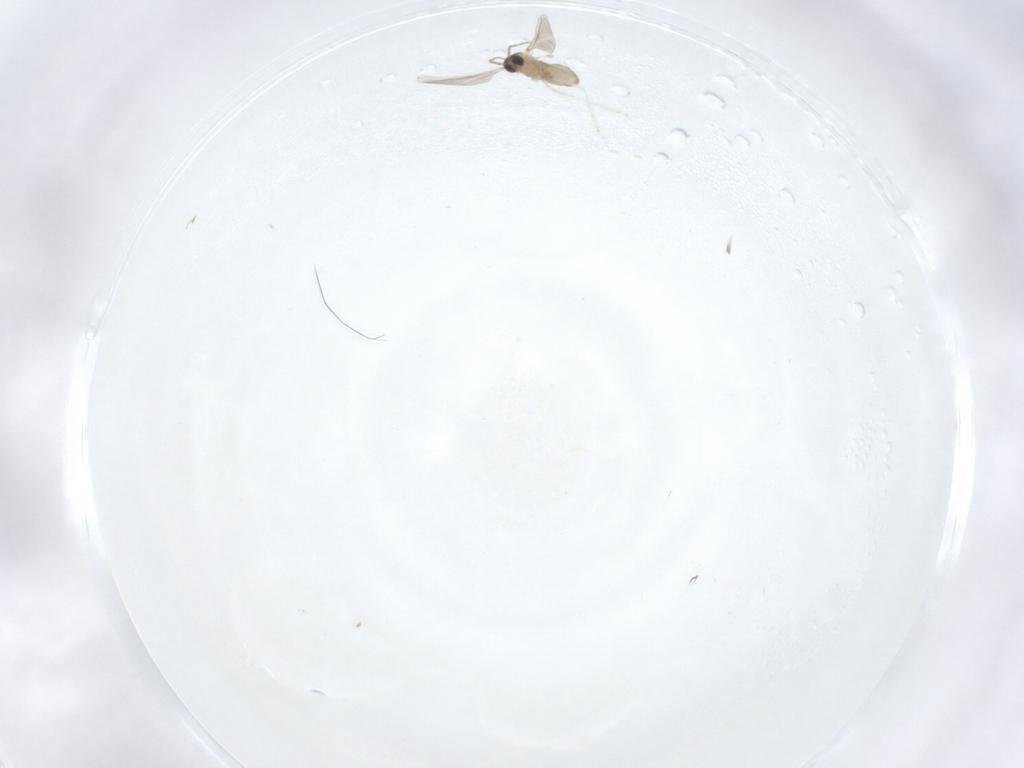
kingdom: Animalia
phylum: Arthropoda
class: Insecta
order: Diptera
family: Cecidomyiidae
